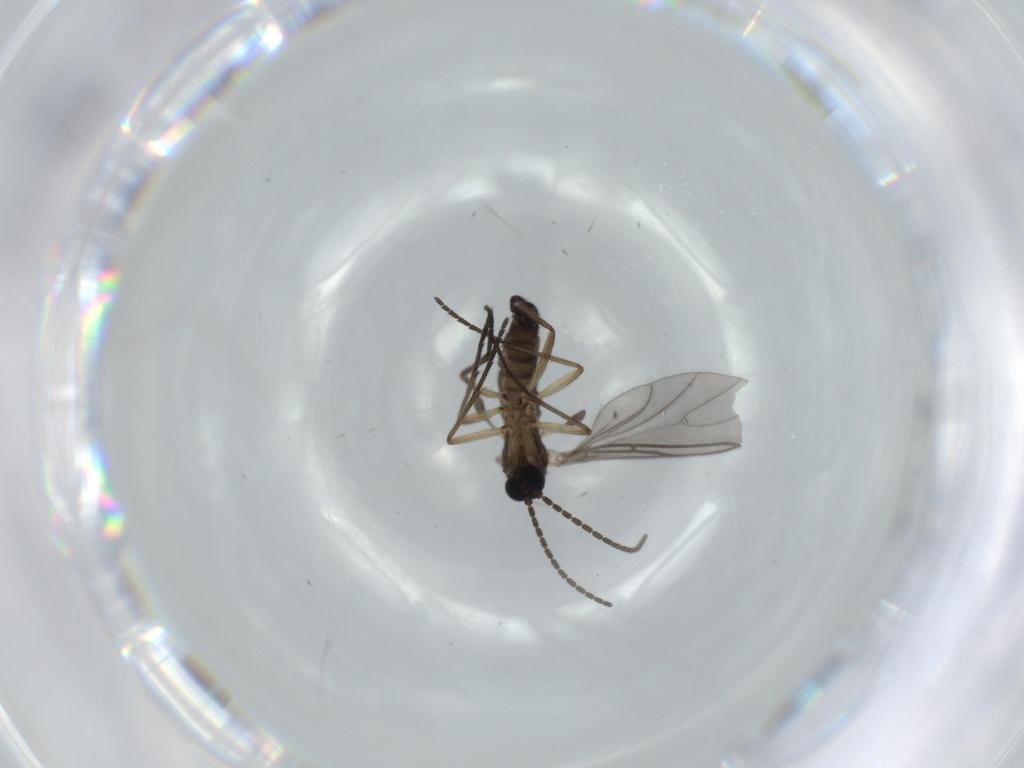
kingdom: Animalia
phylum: Arthropoda
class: Insecta
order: Diptera
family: Sciaridae
